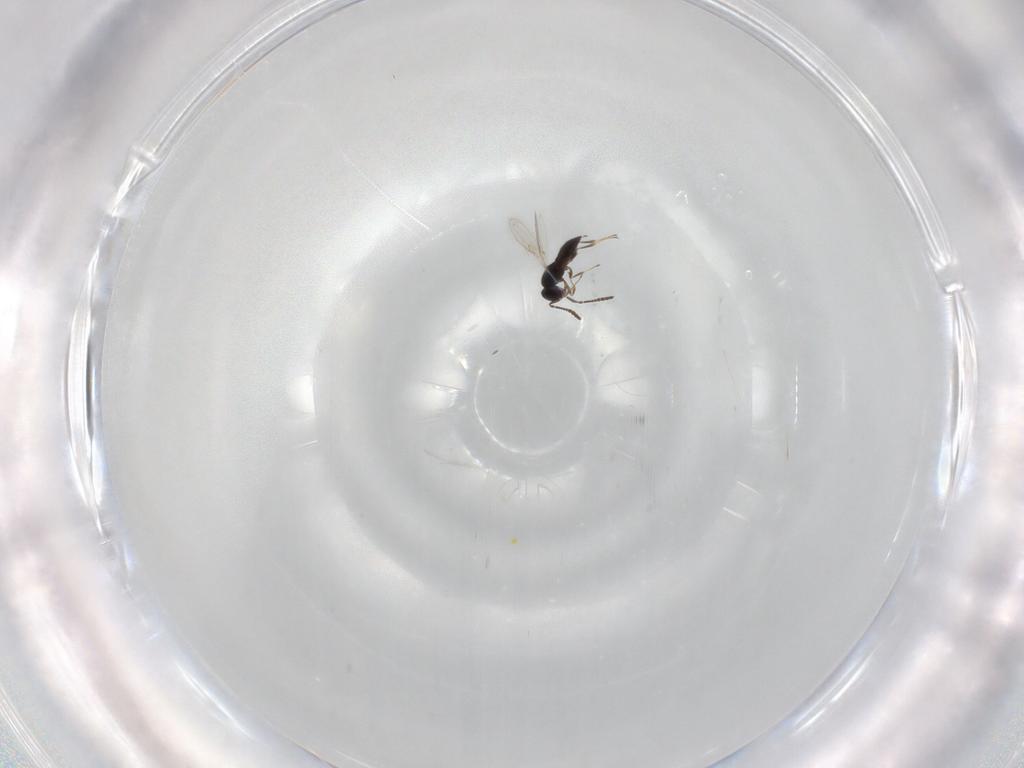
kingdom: Animalia
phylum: Arthropoda
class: Insecta
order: Hymenoptera
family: Scelionidae
